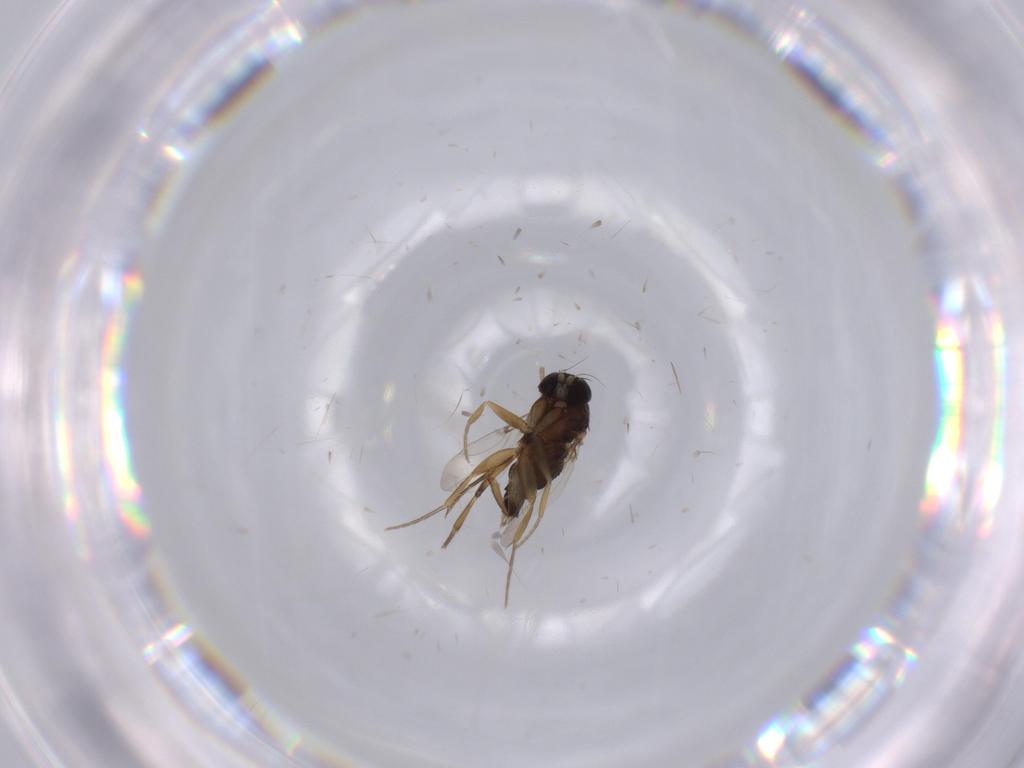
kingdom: Animalia
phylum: Arthropoda
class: Insecta
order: Diptera
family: Phoridae
